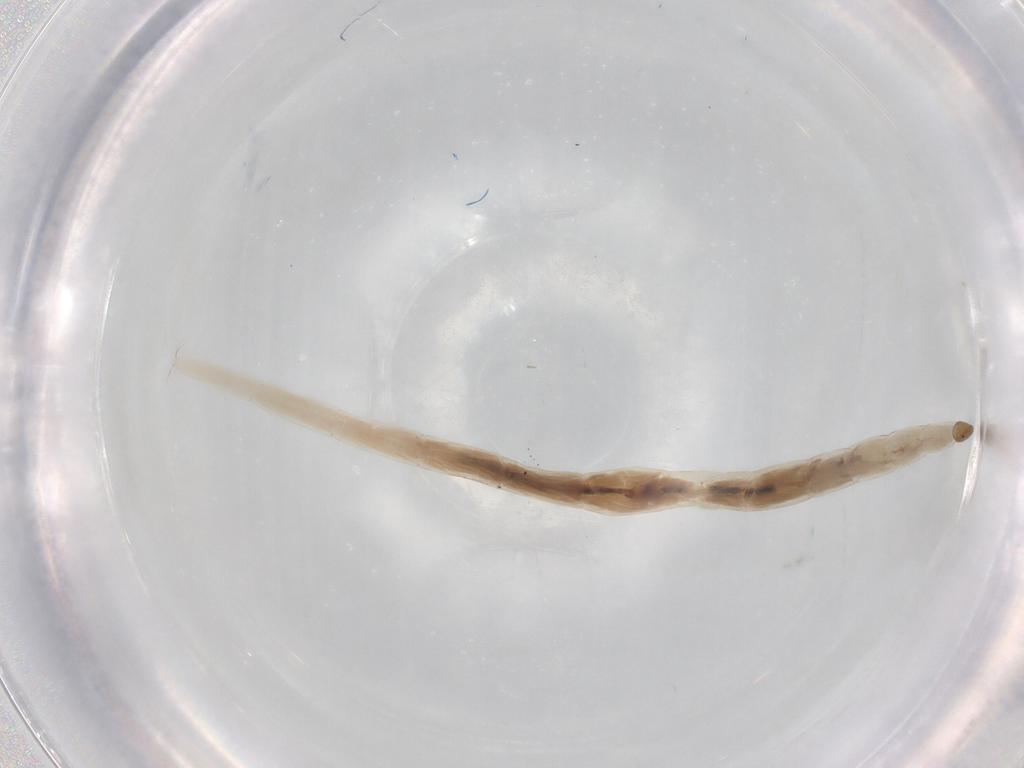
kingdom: Animalia
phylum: Arthropoda
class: Insecta
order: Diptera
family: Ceratopogonidae
